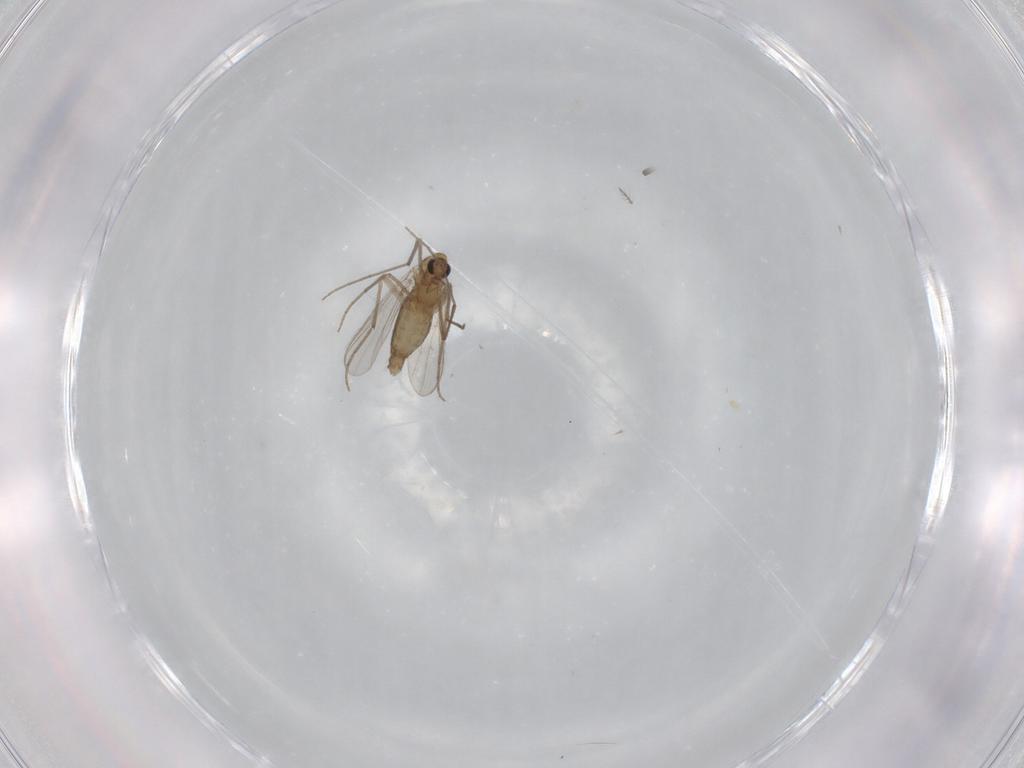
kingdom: Animalia
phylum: Arthropoda
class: Insecta
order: Diptera
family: Chironomidae
